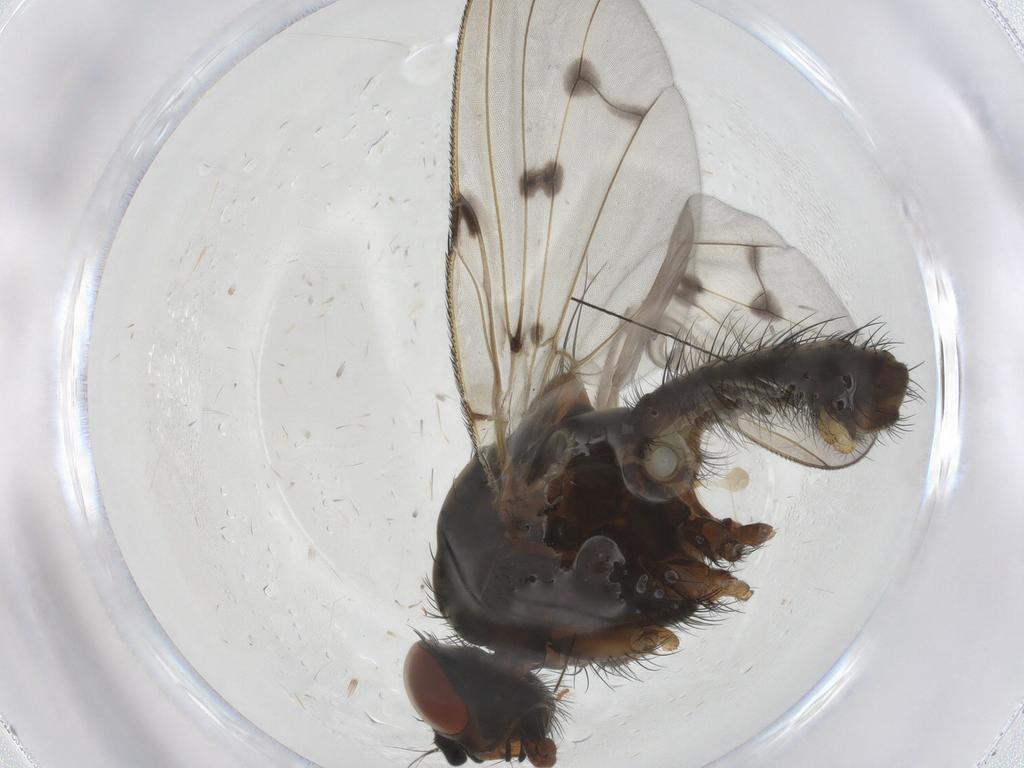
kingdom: Animalia
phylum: Arthropoda
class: Insecta
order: Diptera
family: Anthomyiidae
